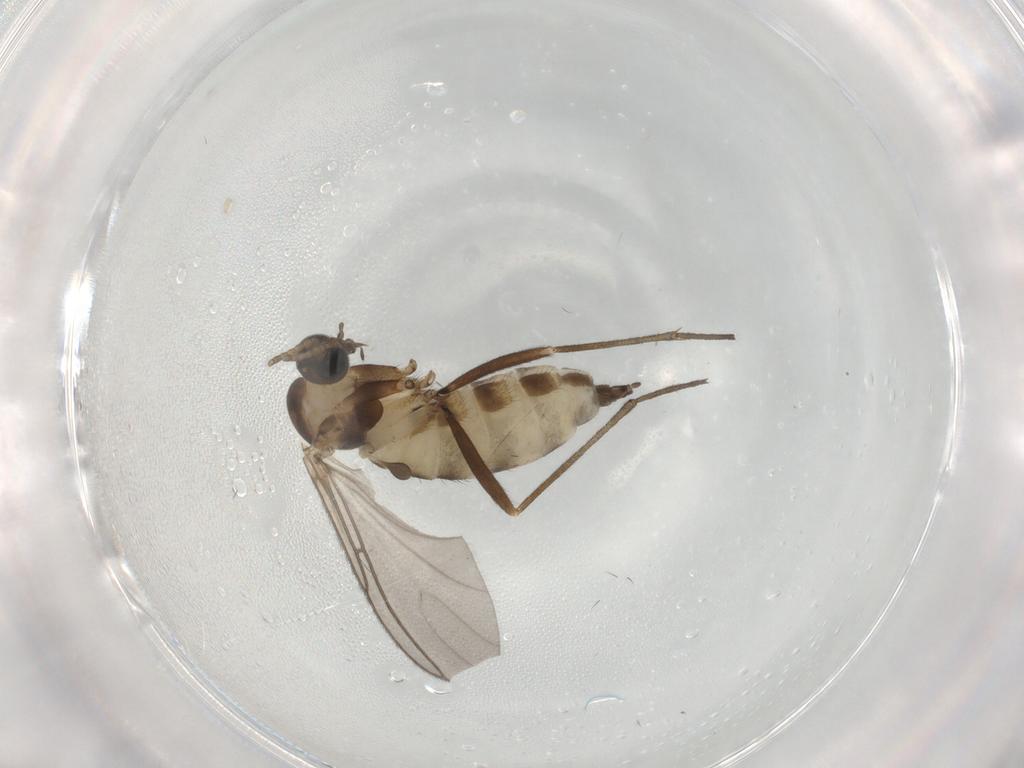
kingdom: Animalia
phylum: Arthropoda
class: Insecta
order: Diptera
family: Sciaridae
